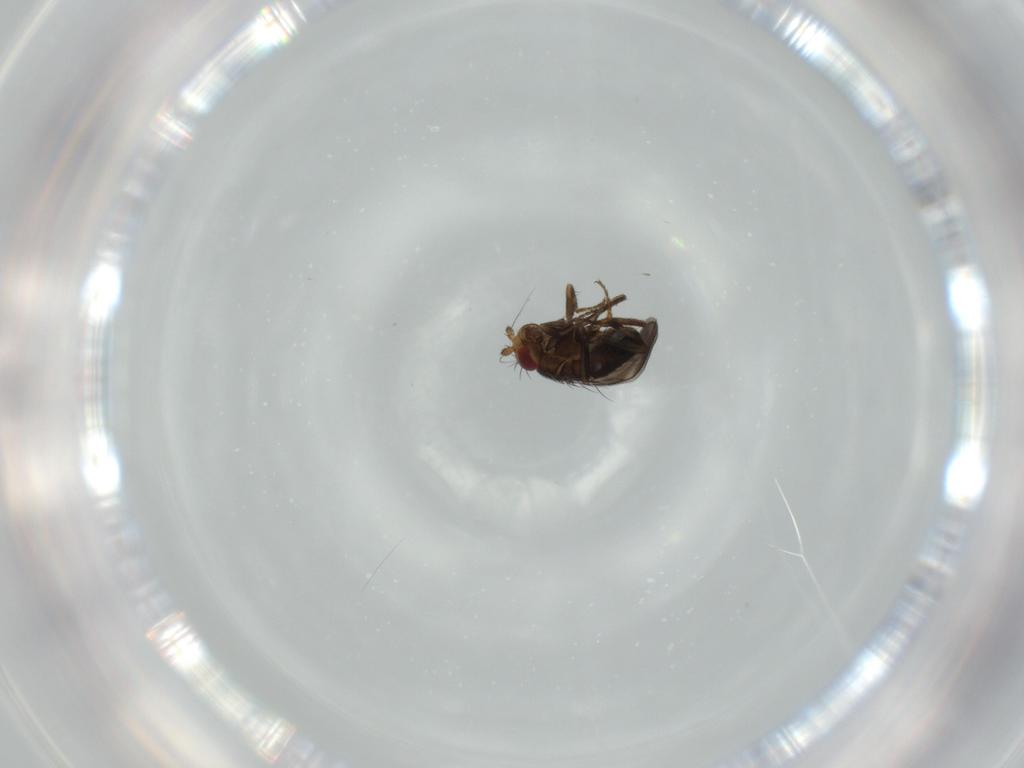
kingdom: Animalia
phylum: Arthropoda
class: Insecta
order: Diptera
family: Dolichopodidae
